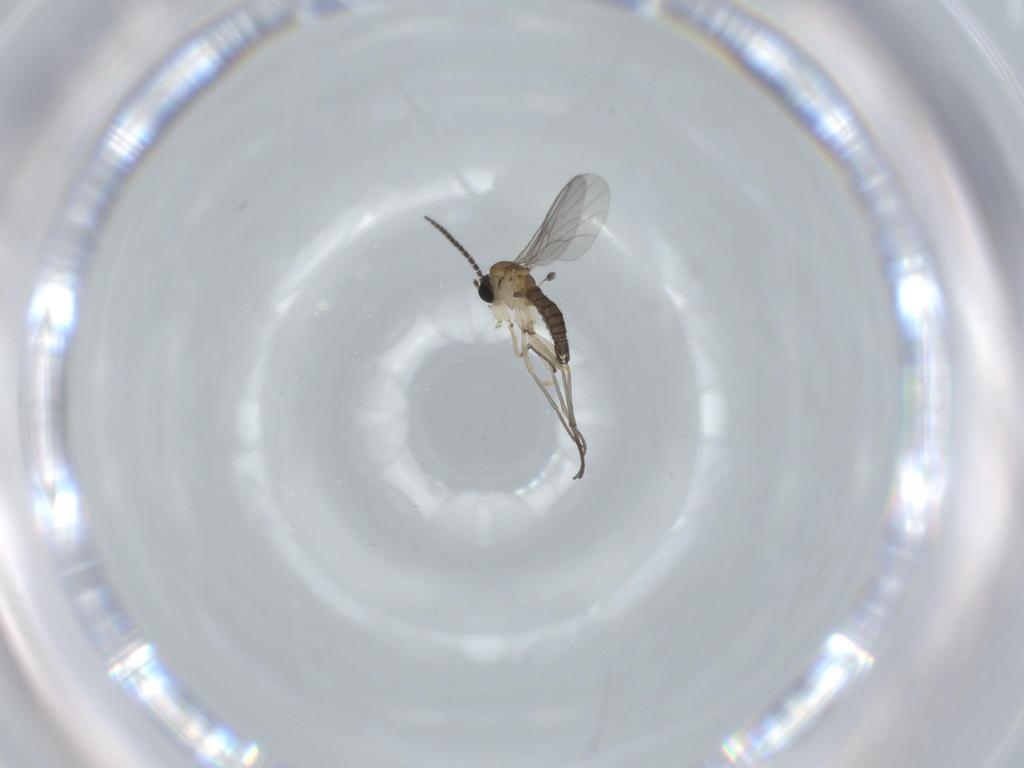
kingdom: Animalia
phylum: Arthropoda
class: Insecta
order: Diptera
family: Sciaridae
